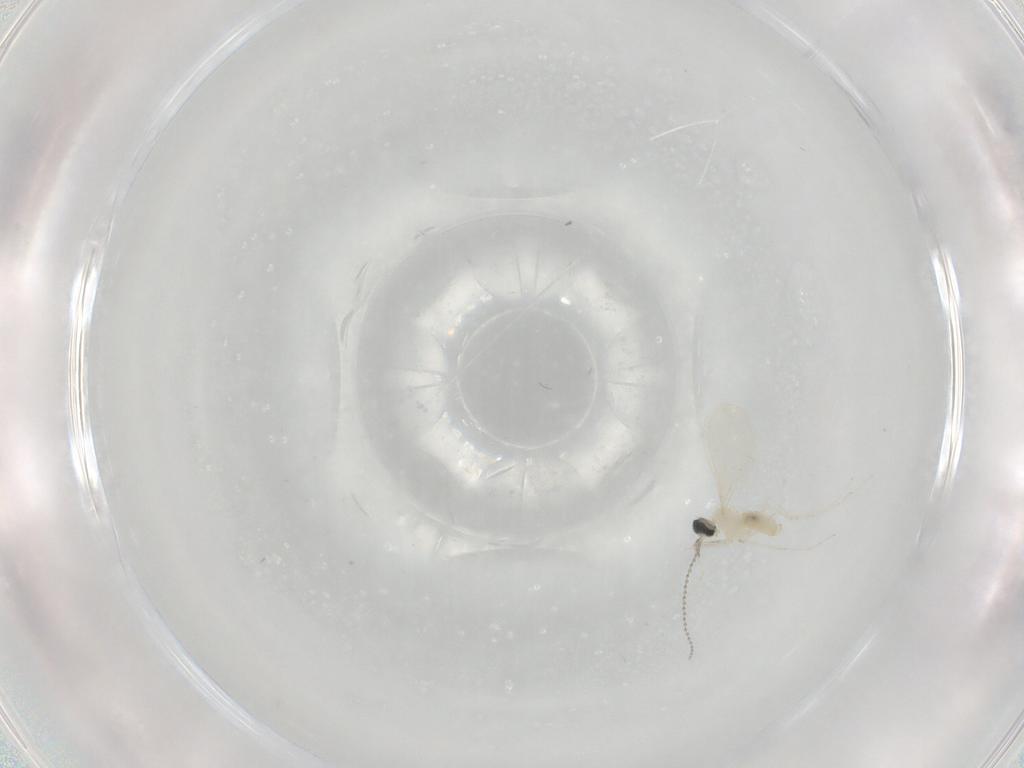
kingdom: Animalia
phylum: Arthropoda
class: Insecta
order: Diptera
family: Cecidomyiidae
